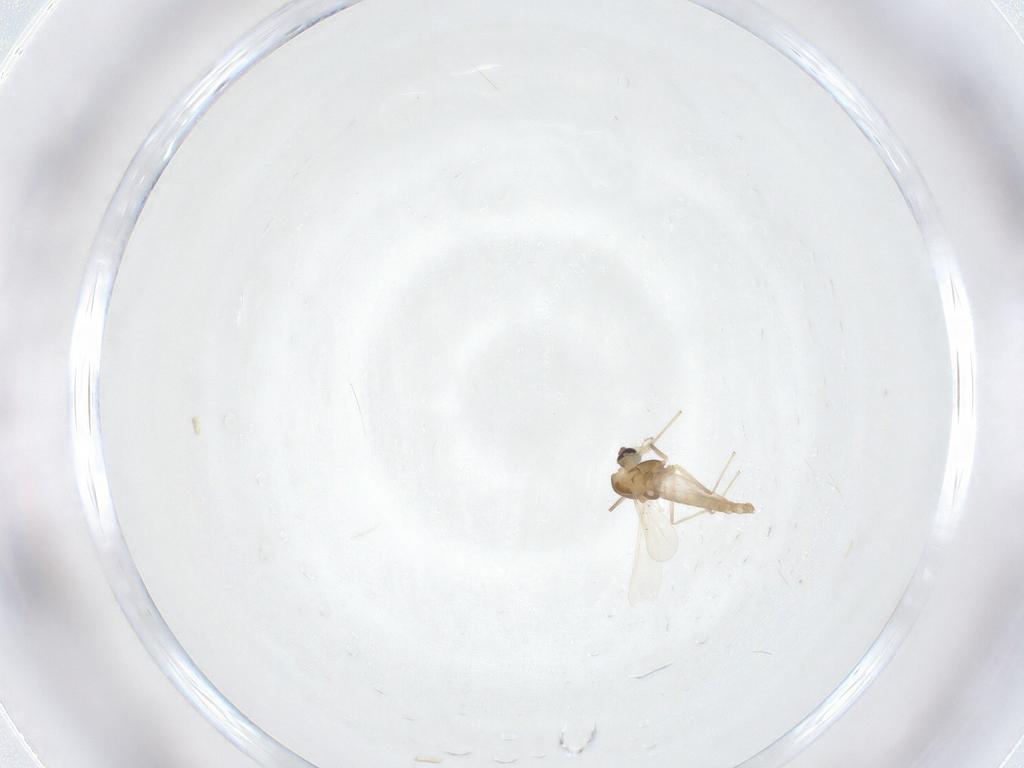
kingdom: Animalia
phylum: Arthropoda
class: Insecta
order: Diptera
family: Chironomidae
